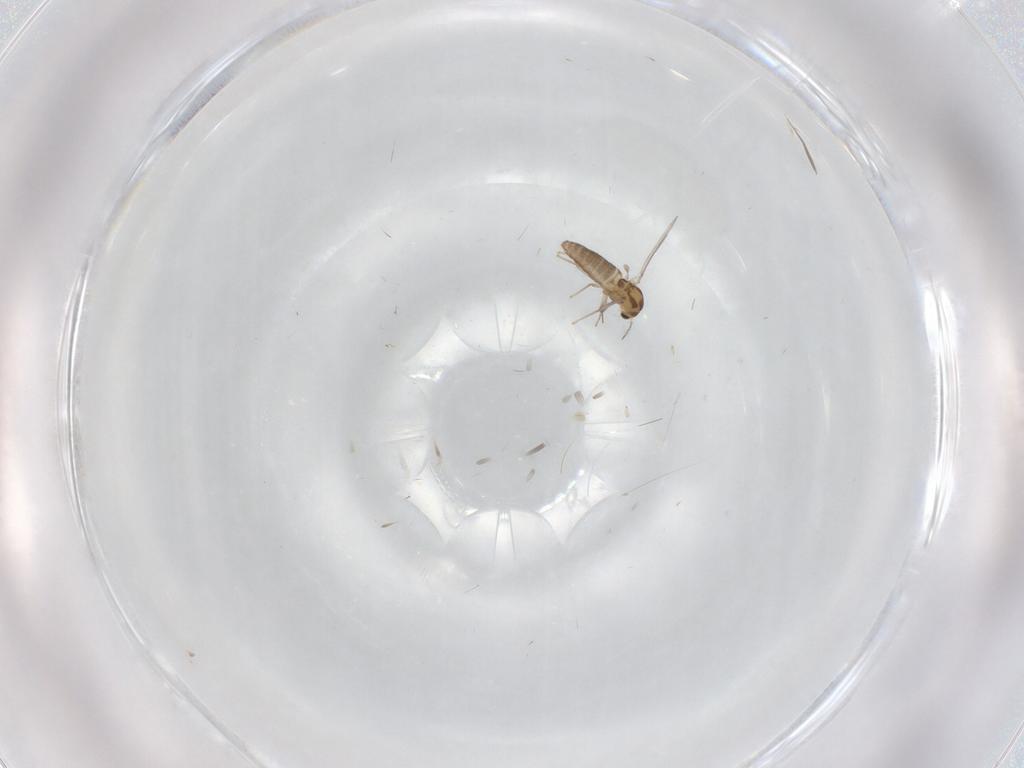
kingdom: Animalia
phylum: Arthropoda
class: Insecta
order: Diptera
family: Chironomidae
